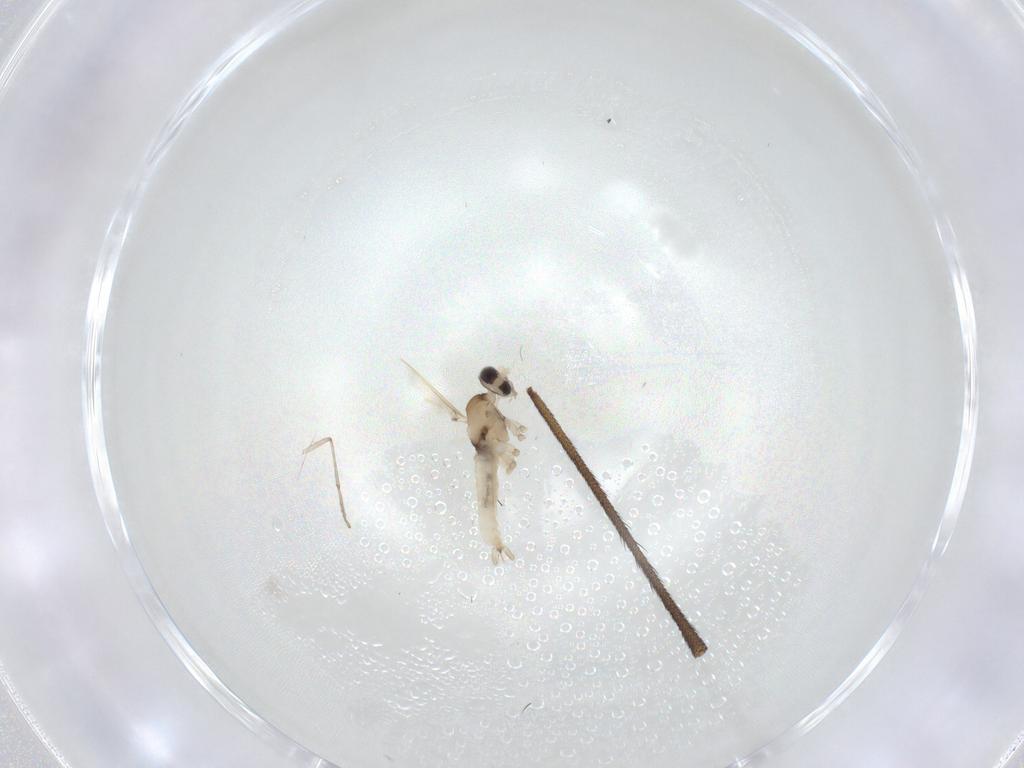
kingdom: Animalia
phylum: Arthropoda
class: Insecta
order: Diptera
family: Cecidomyiidae
